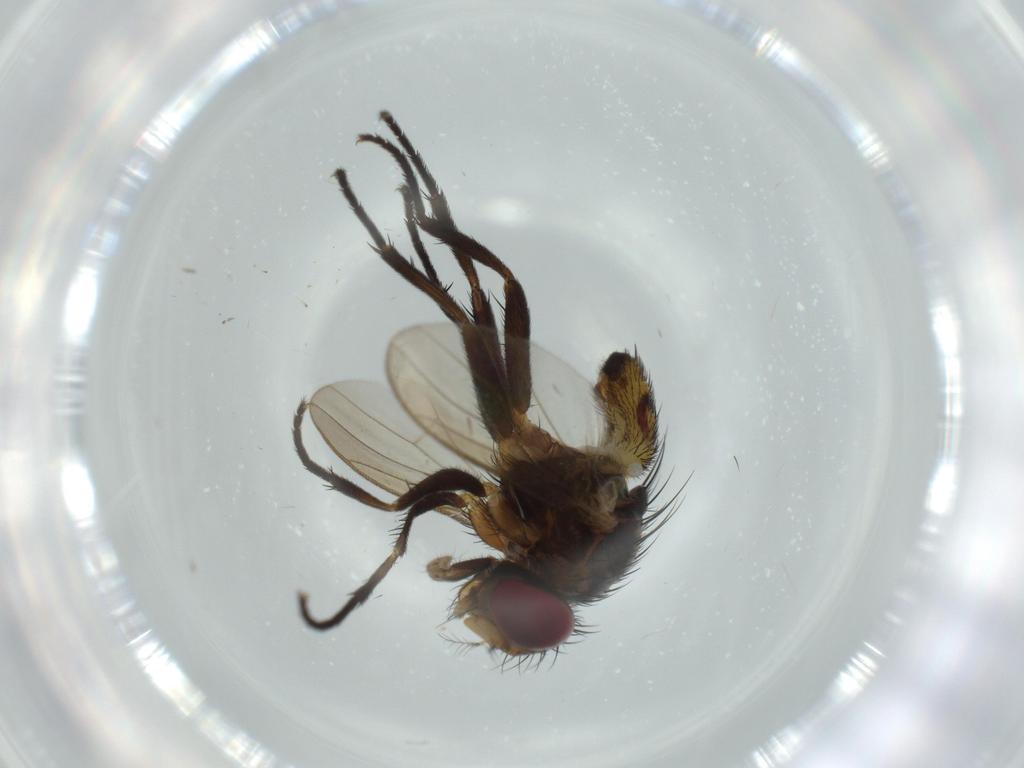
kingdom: Animalia
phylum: Arthropoda
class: Insecta
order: Diptera
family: Anthomyiidae
